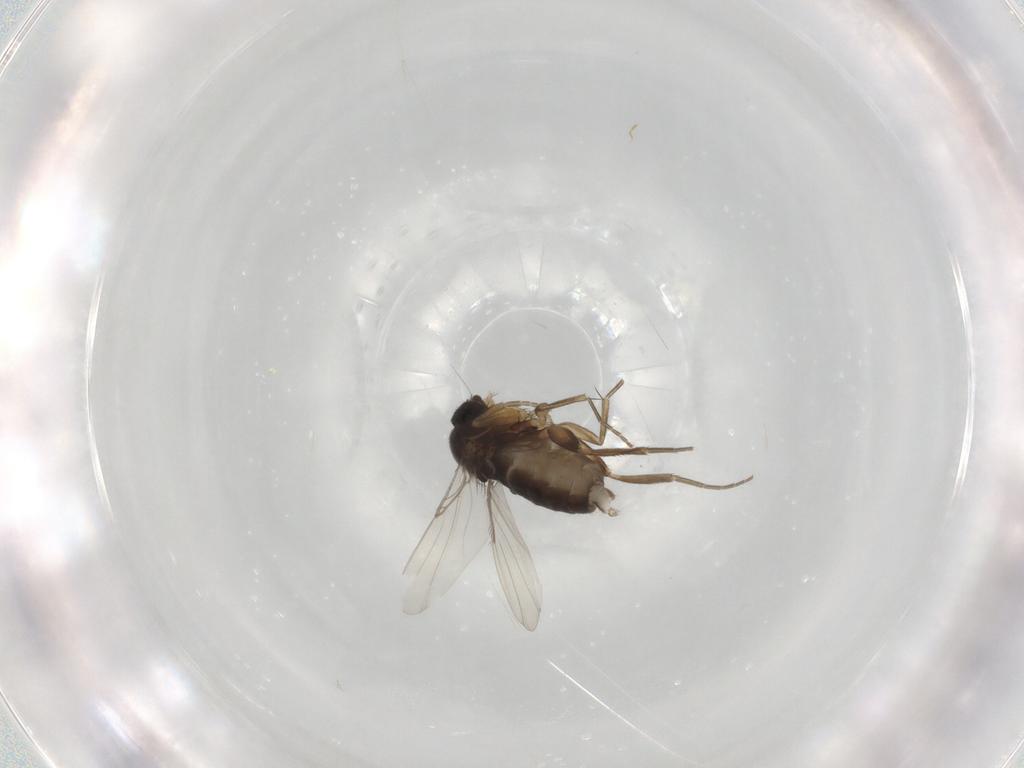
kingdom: Animalia
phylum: Arthropoda
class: Insecta
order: Diptera
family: Phoridae
